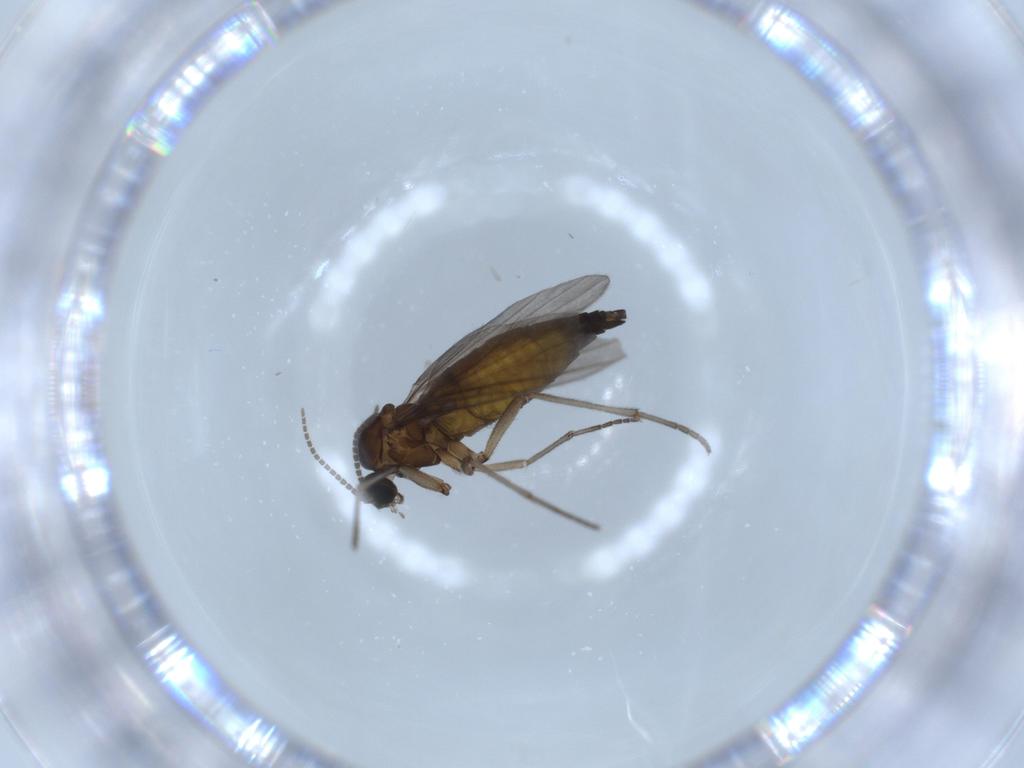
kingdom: Animalia
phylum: Arthropoda
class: Insecta
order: Diptera
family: Sciaridae
